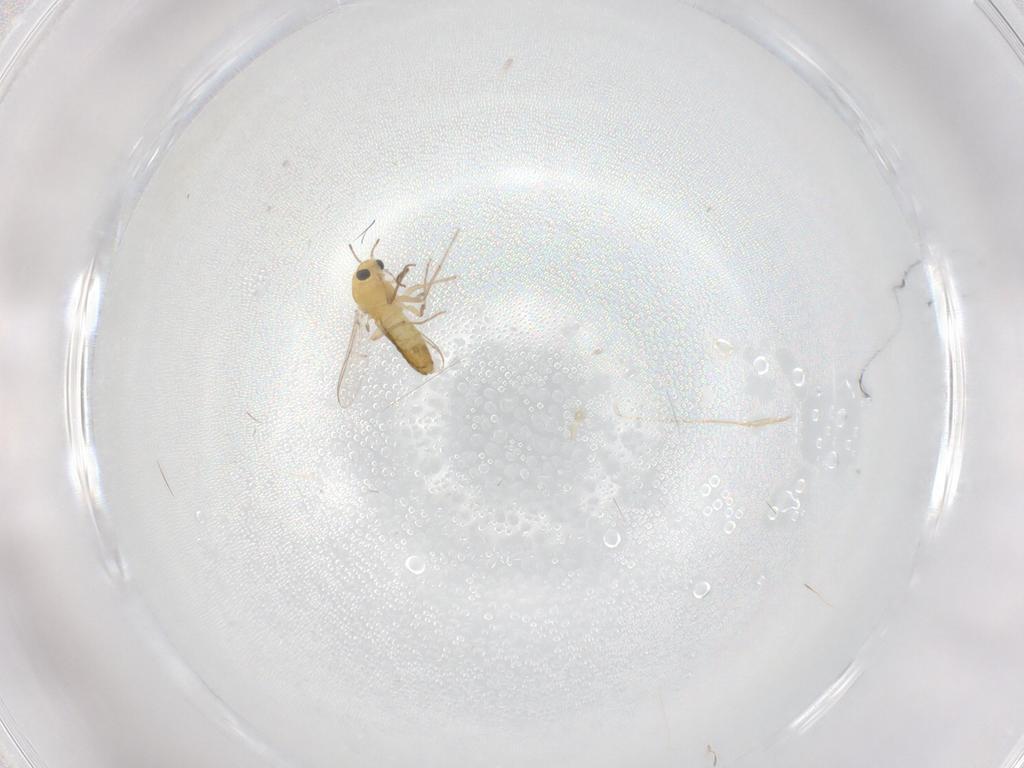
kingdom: Animalia
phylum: Arthropoda
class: Insecta
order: Diptera
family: Chironomidae
